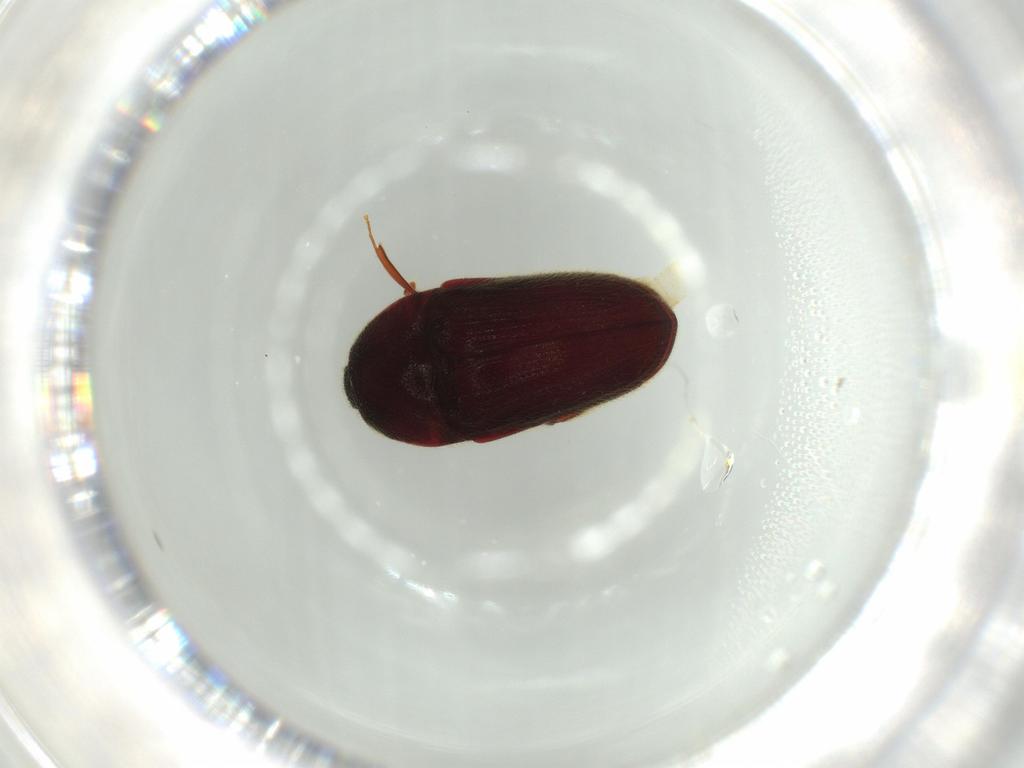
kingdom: Animalia
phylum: Arthropoda
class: Insecta
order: Coleoptera
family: Throscidae
